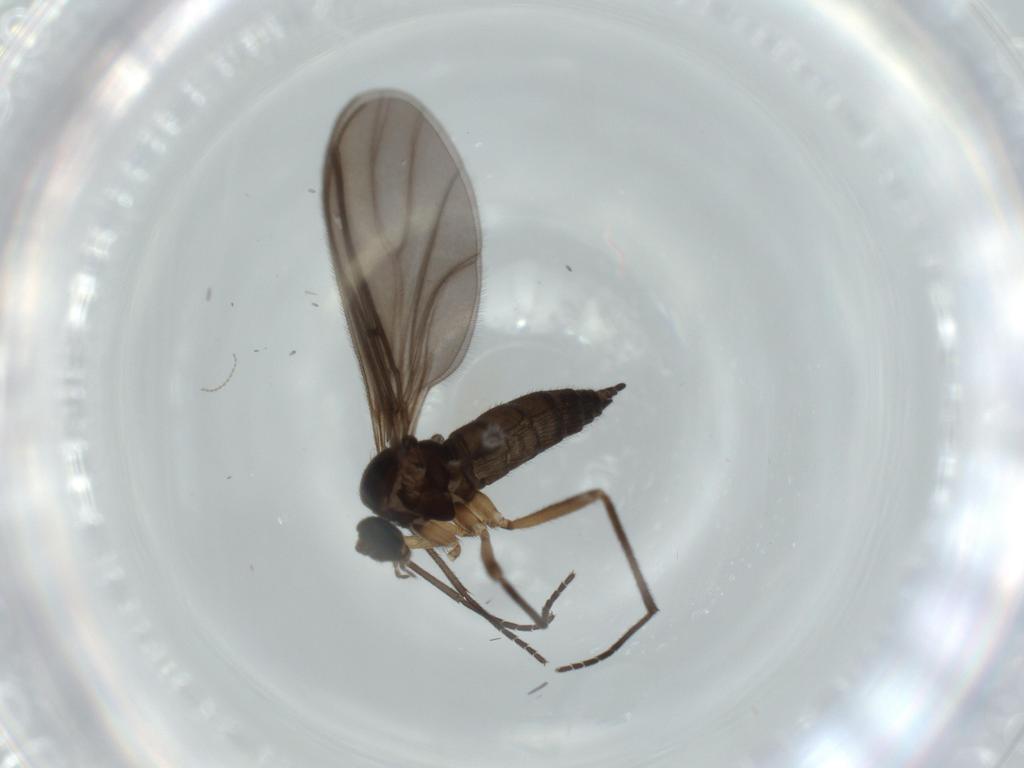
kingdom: Animalia
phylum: Arthropoda
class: Insecta
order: Diptera
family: Sciaridae
